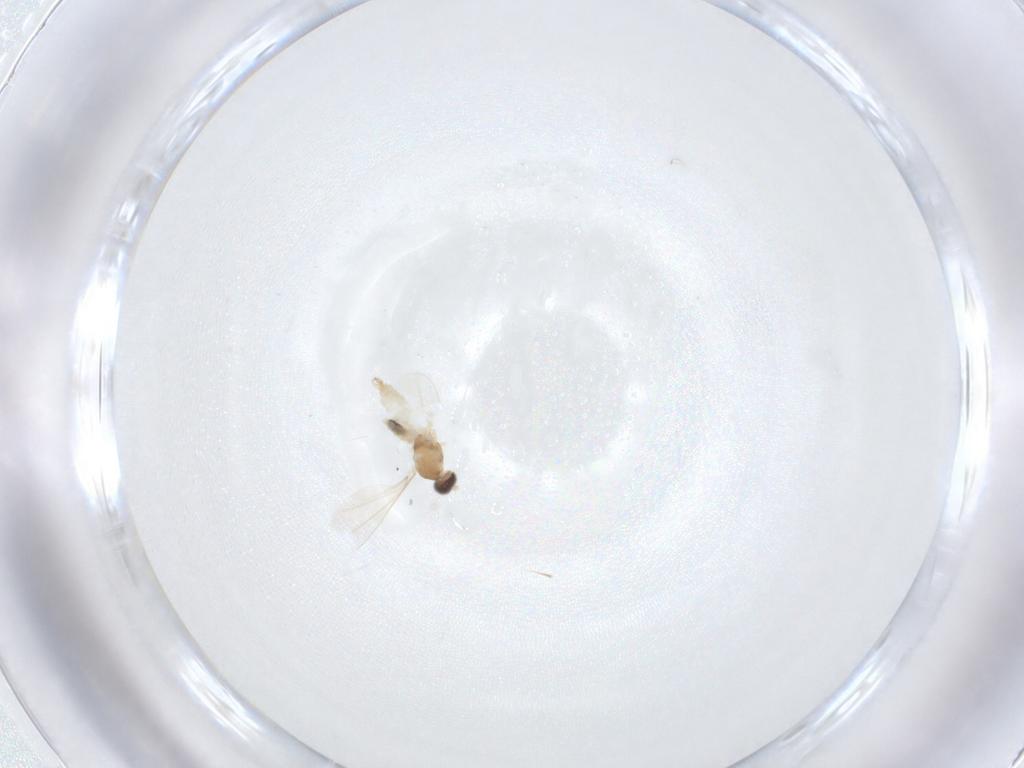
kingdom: Animalia
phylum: Arthropoda
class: Insecta
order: Diptera
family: Cecidomyiidae
